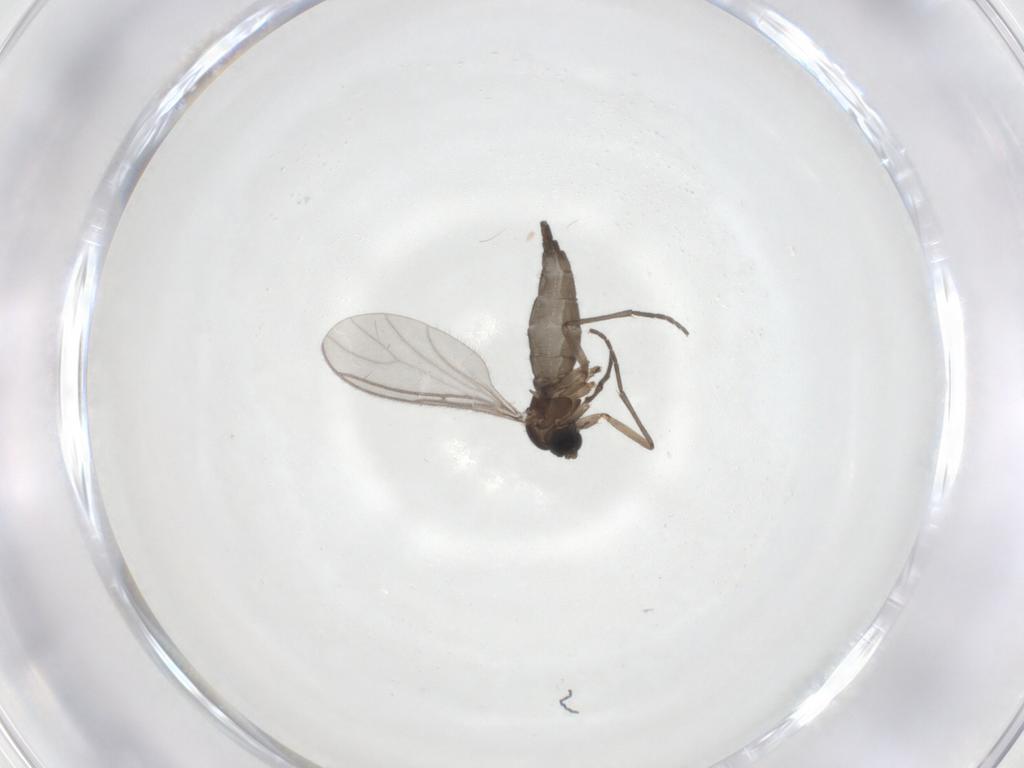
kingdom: Animalia
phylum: Arthropoda
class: Insecta
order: Diptera
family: Sciaridae
